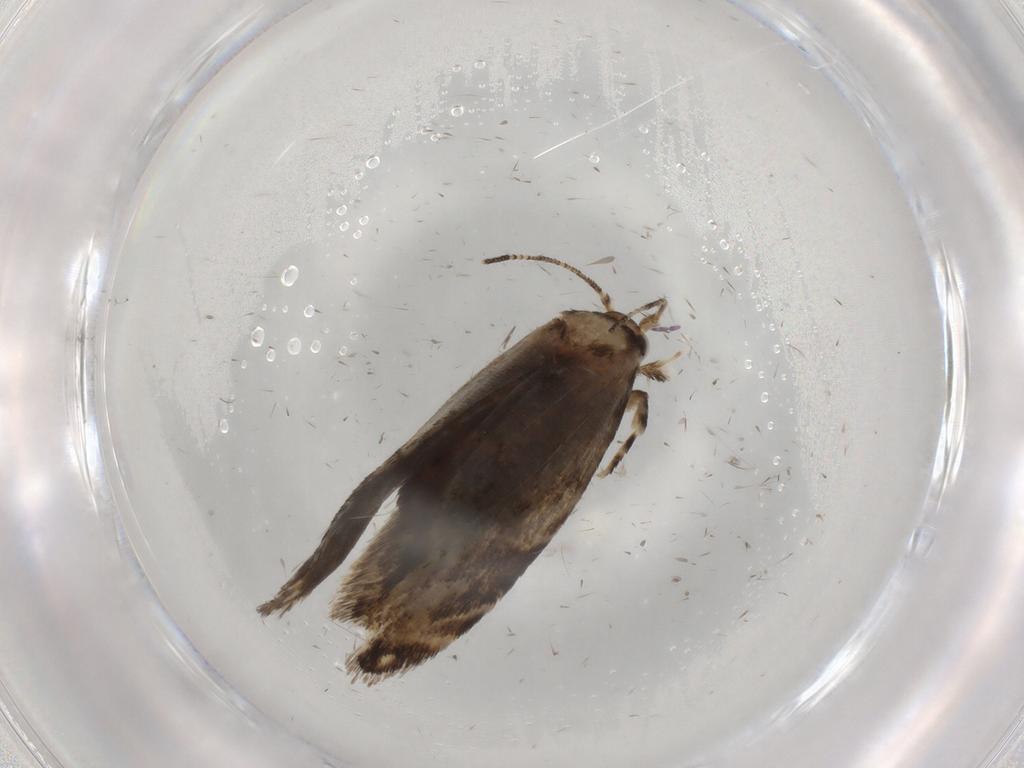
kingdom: Animalia
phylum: Arthropoda
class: Insecta
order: Lepidoptera
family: Tineidae
